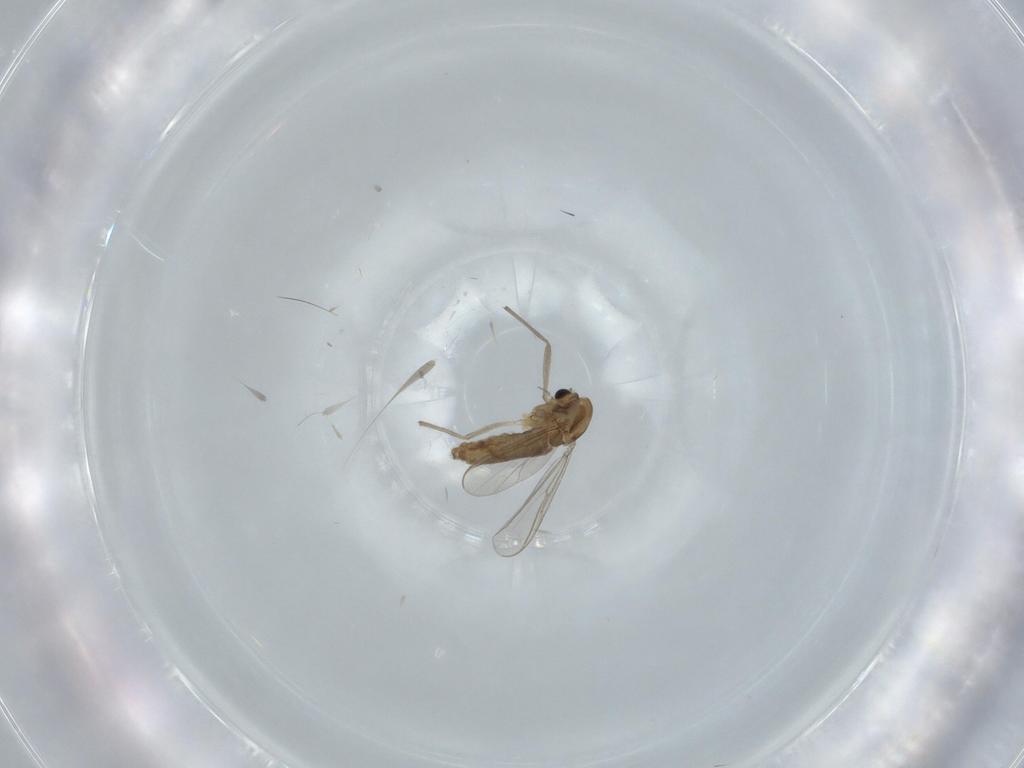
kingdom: Animalia
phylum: Arthropoda
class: Insecta
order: Diptera
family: Chironomidae
